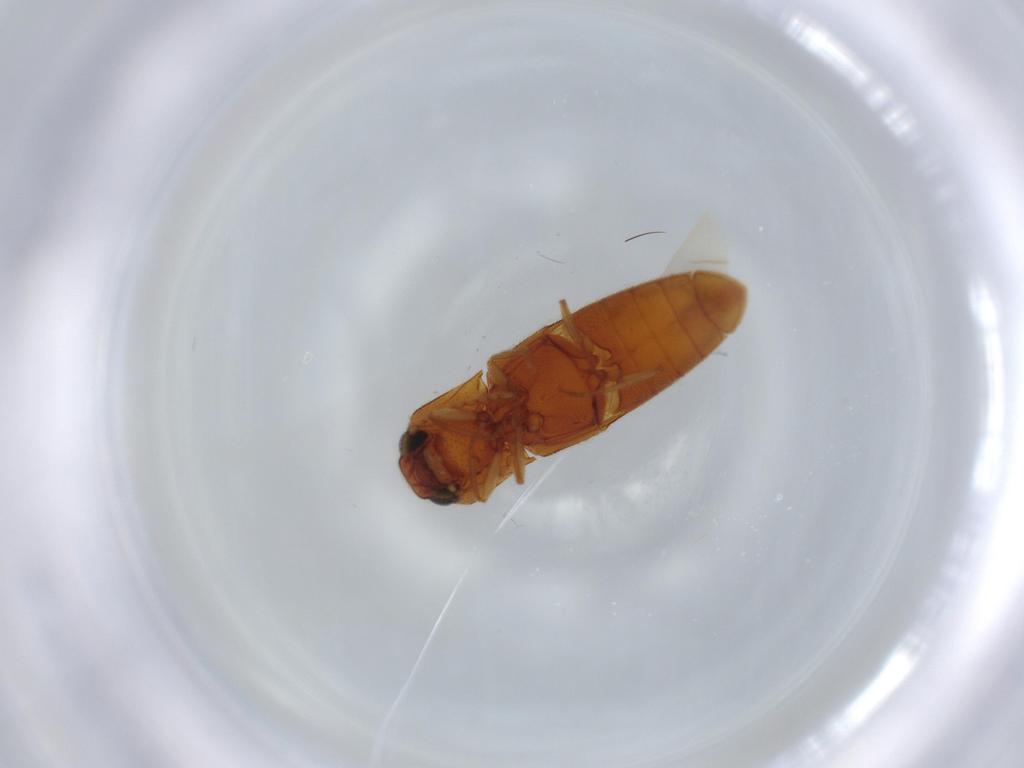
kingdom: Animalia
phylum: Arthropoda
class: Insecta
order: Coleoptera
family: Elateridae
